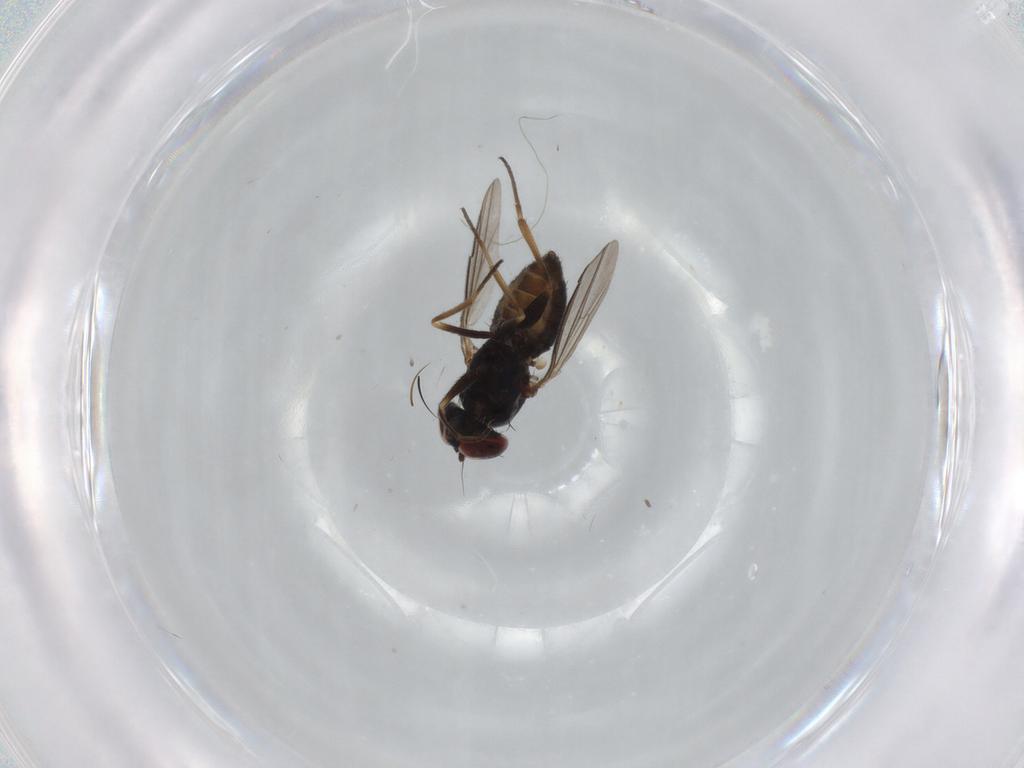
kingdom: Animalia
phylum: Arthropoda
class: Insecta
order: Diptera
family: Dolichopodidae
